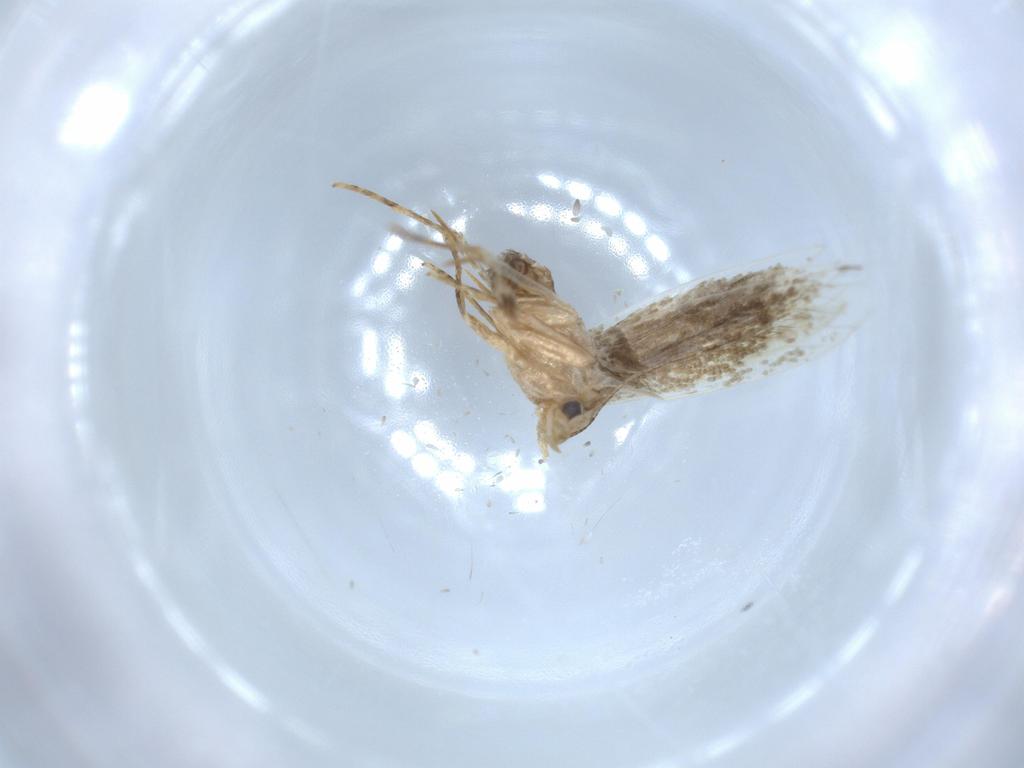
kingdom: Animalia
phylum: Arthropoda
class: Insecta
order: Lepidoptera
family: Tineidae
